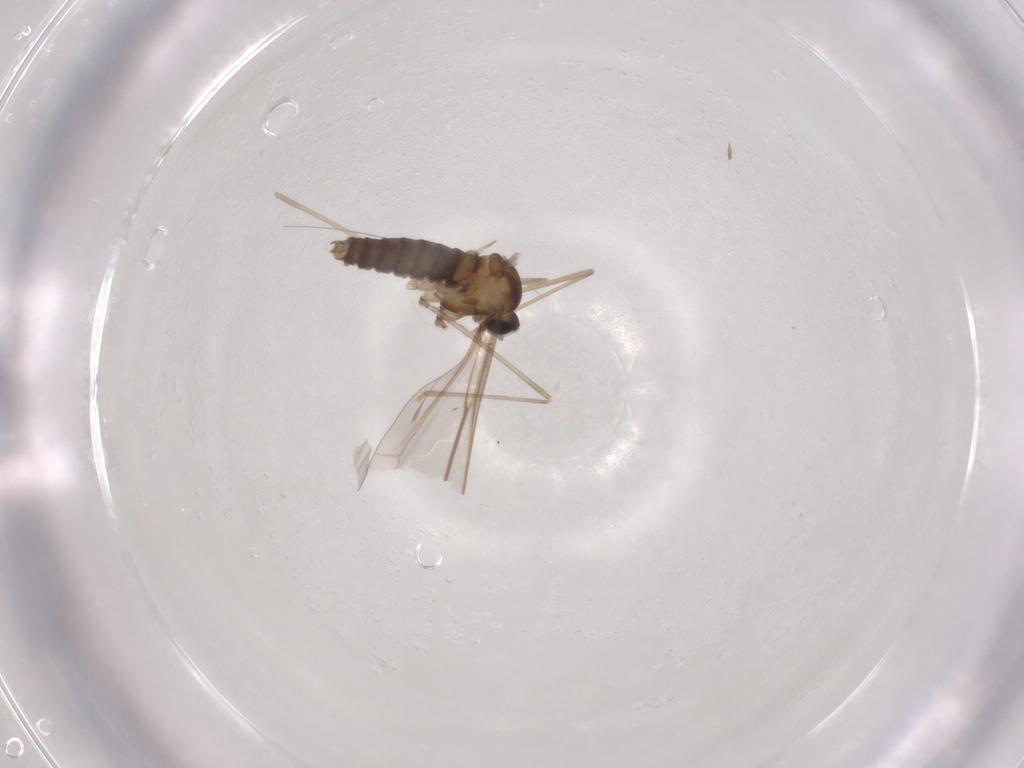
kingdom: Animalia
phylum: Arthropoda
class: Insecta
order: Diptera
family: Cecidomyiidae
